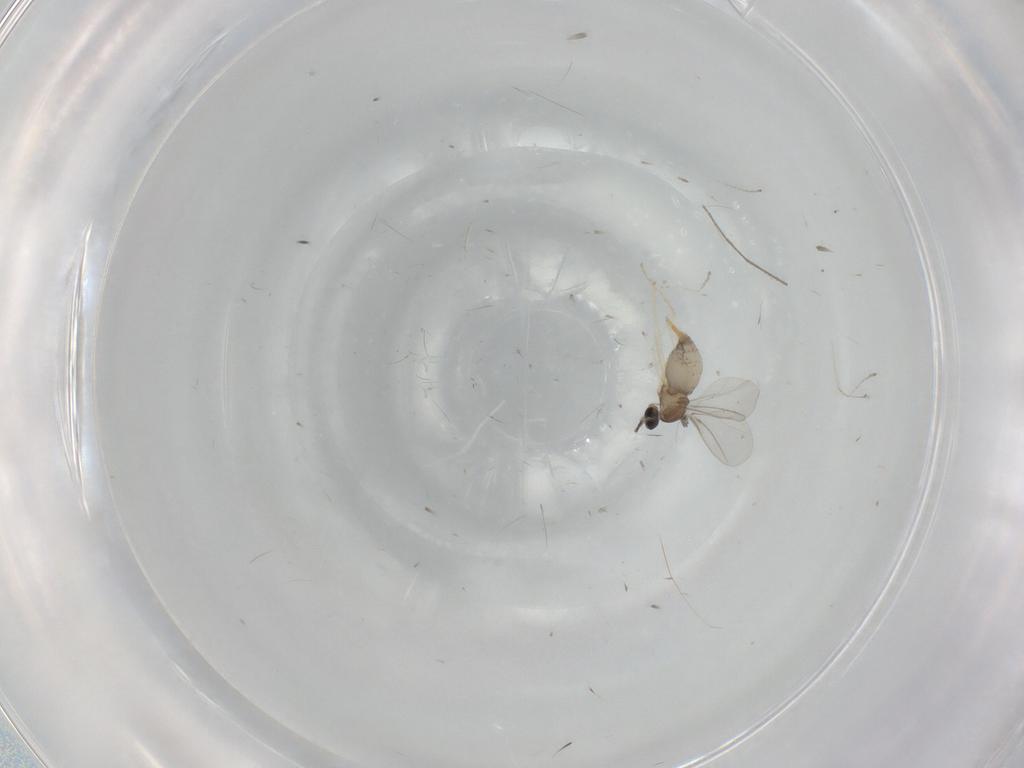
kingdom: Animalia
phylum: Arthropoda
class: Insecta
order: Diptera
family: Cecidomyiidae
